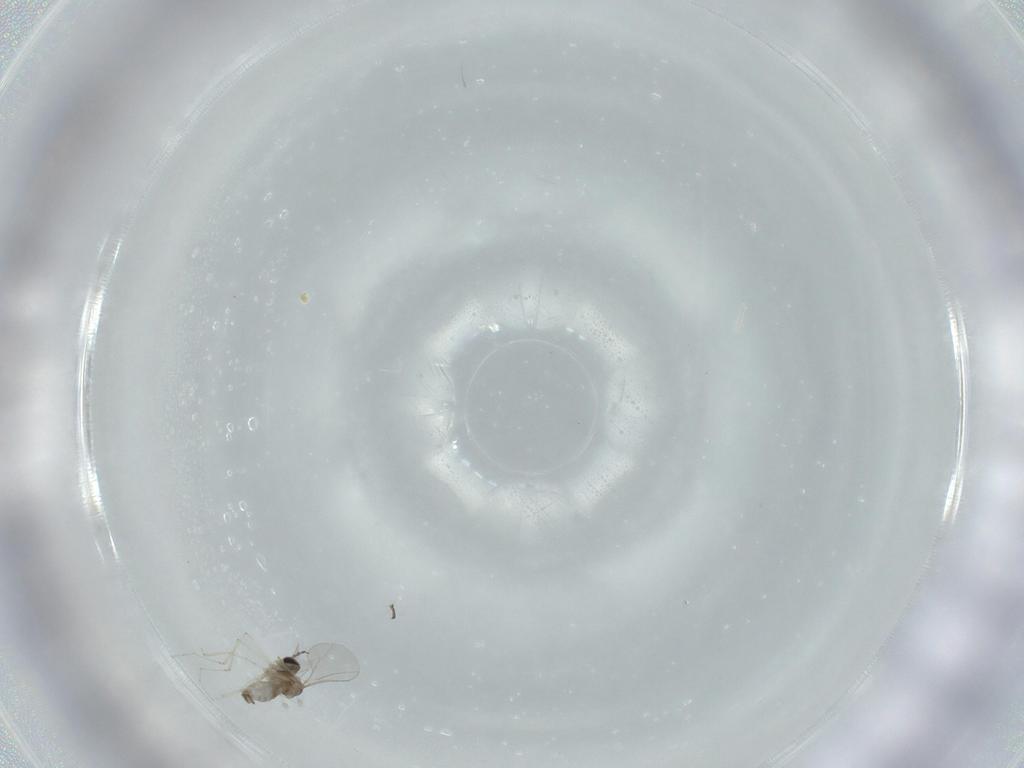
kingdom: Animalia
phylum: Arthropoda
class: Insecta
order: Diptera
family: Cecidomyiidae
